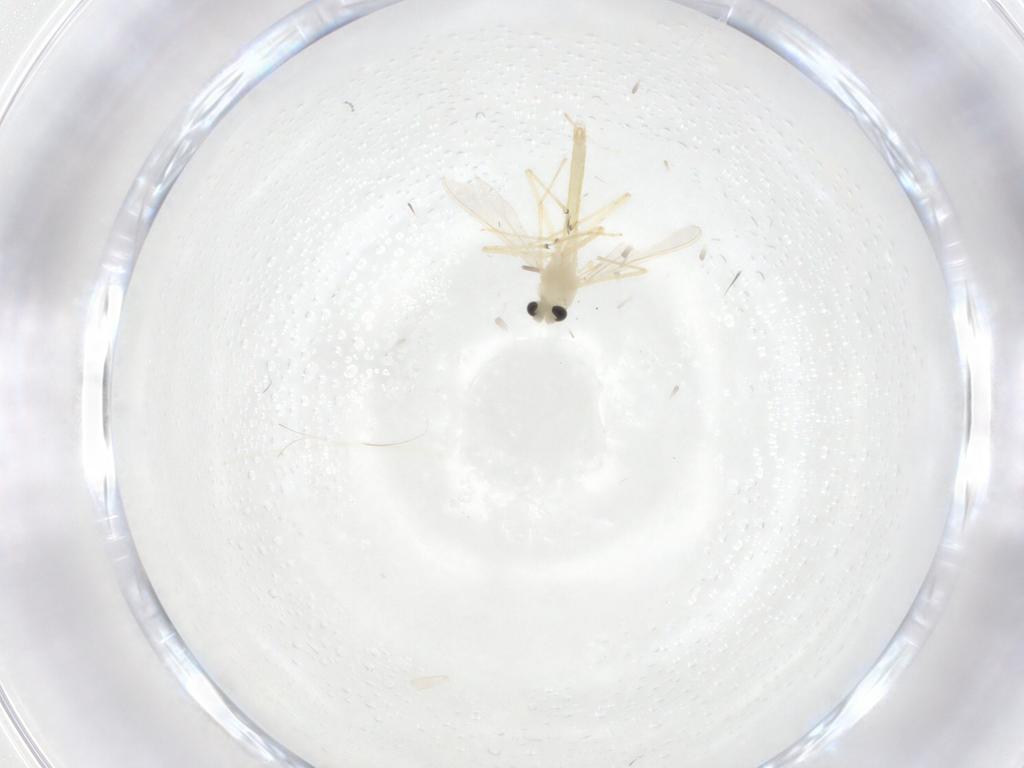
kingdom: Animalia
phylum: Arthropoda
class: Insecta
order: Diptera
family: Chironomidae
